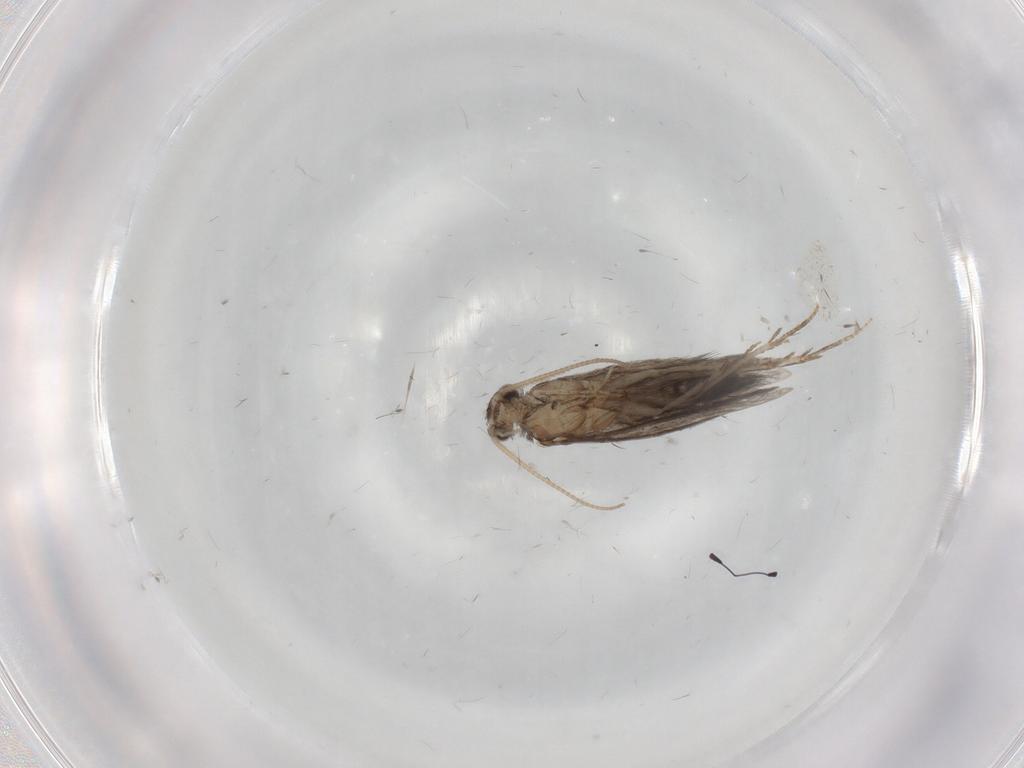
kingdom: Animalia
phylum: Arthropoda
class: Insecta
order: Trichoptera
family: Hydroptilidae
